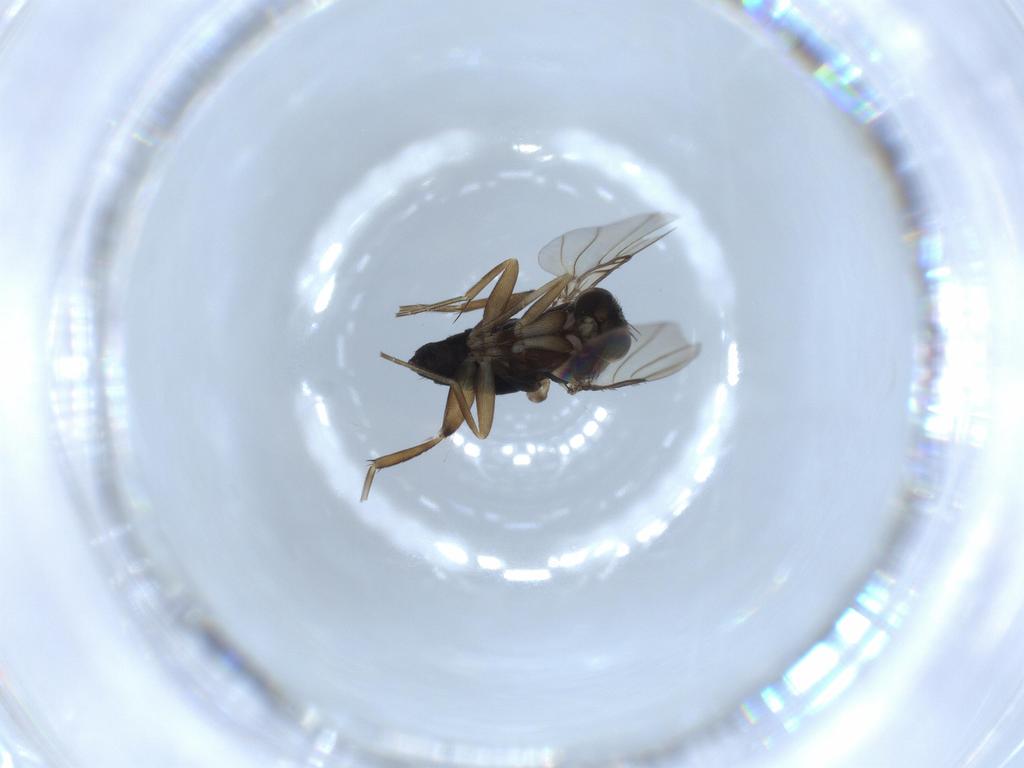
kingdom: Animalia
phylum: Arthropoda
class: Insecta
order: Diptera
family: Phoridae
